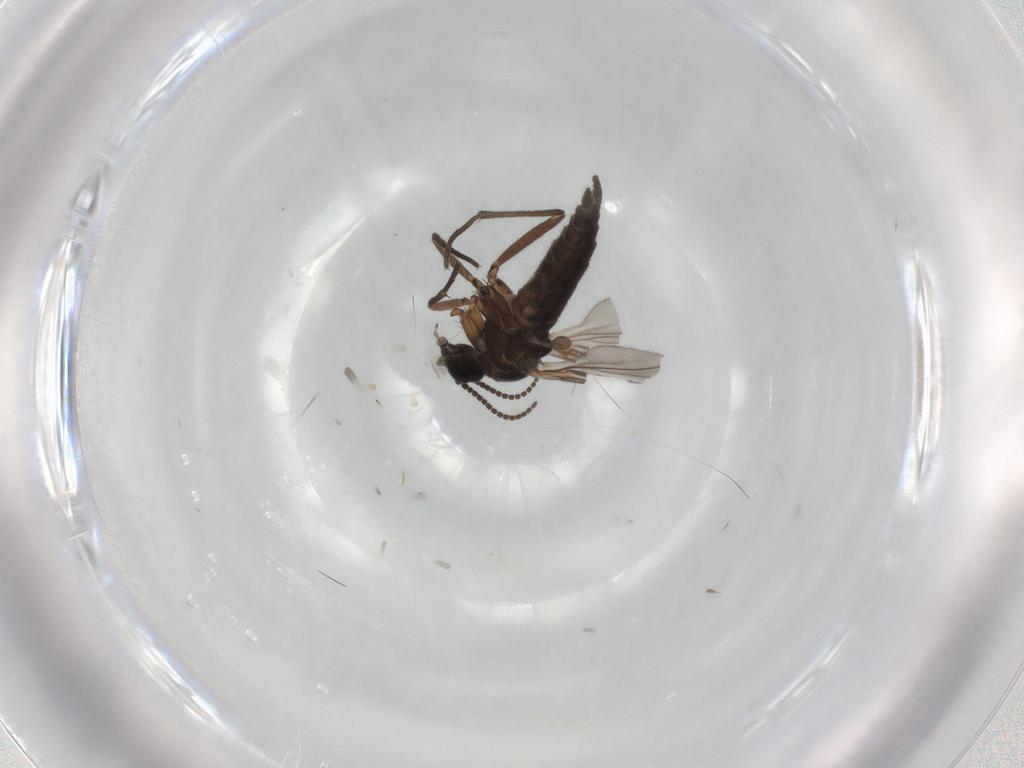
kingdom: Animalia
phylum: Arthropoda
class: Insecta
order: Diptera
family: Sciaridae
